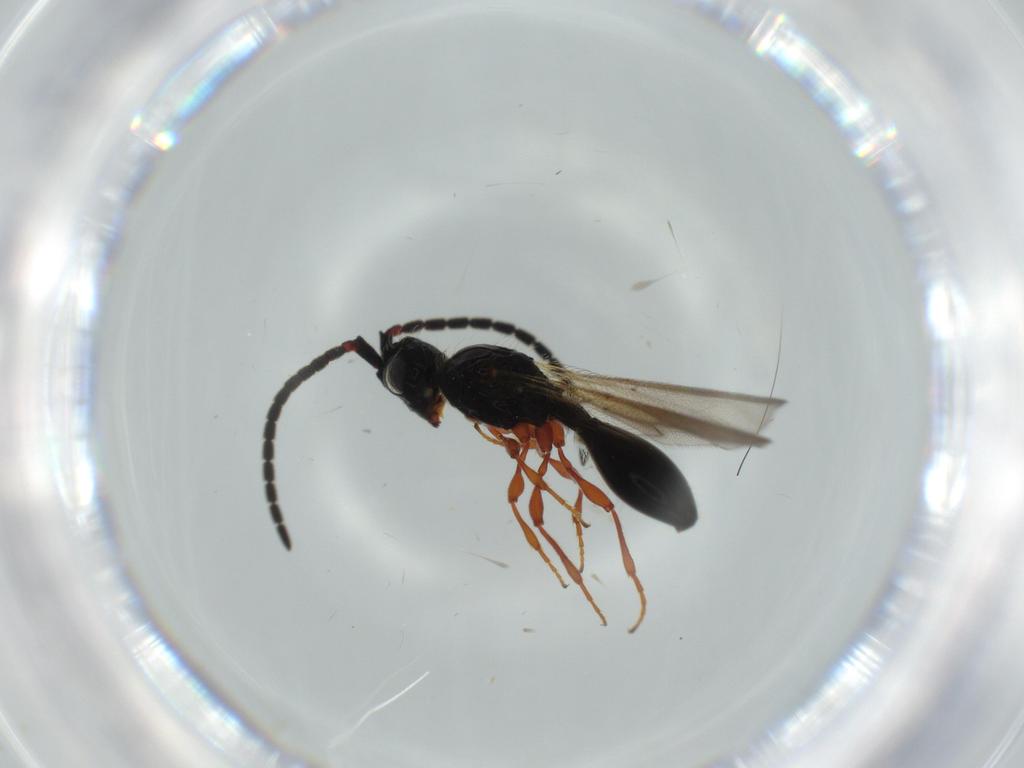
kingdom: Animalia
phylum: Arthropoda
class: Insecta
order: Hymenoptera
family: Diapriidae
